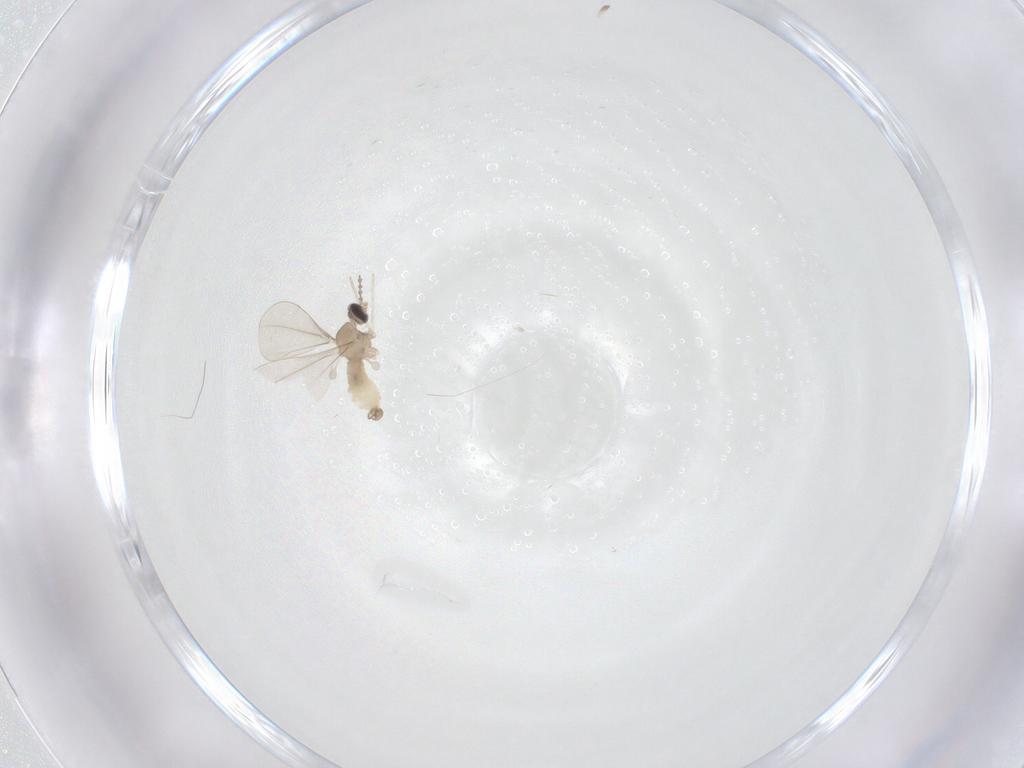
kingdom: Animalia
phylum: Arthropoda
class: Insecta
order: Diptera
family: Cecidomyiidae
